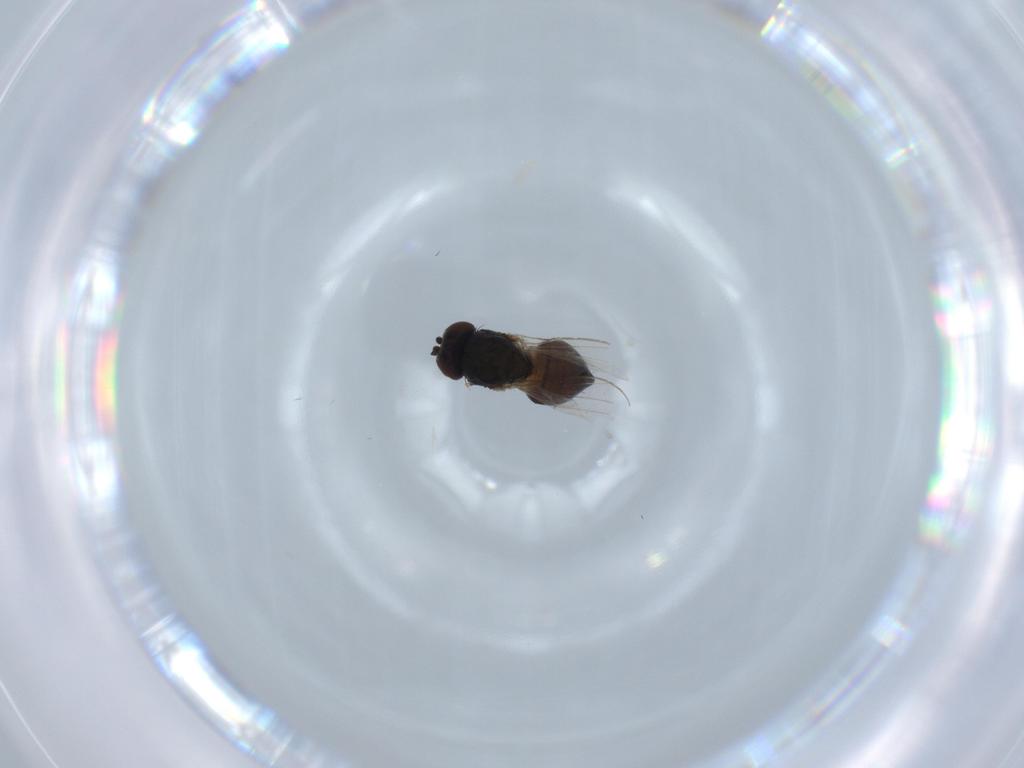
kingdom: Animalia
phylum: Arthropoda
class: Insecta
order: Diptera
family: Ephydridae
